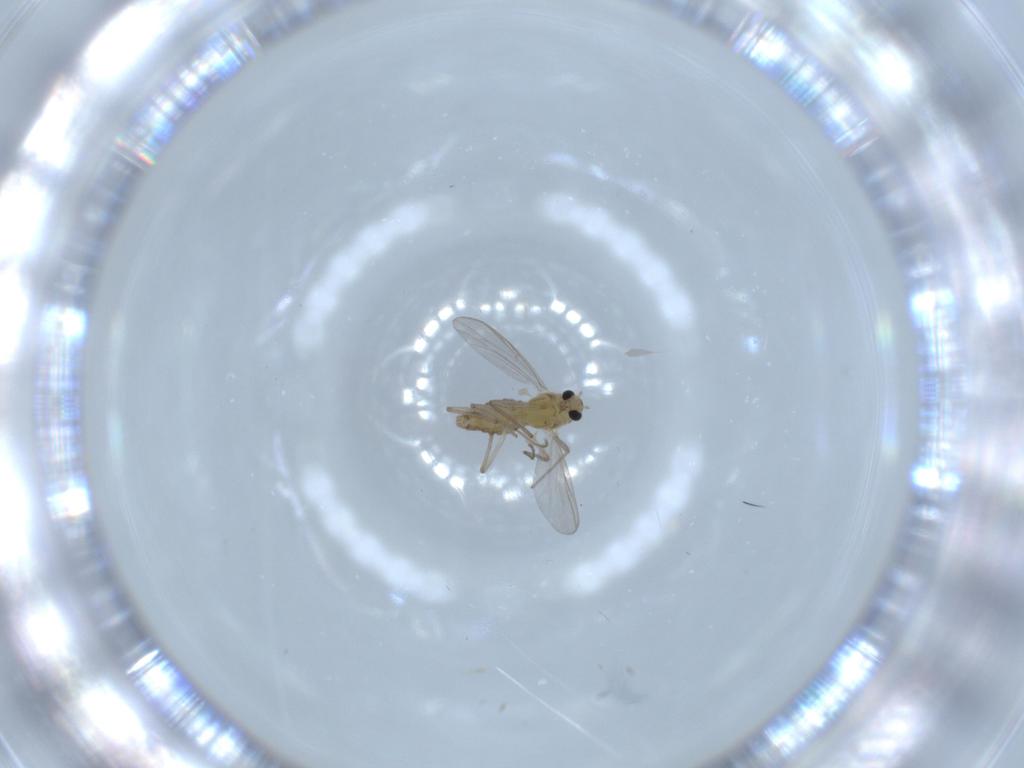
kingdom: Animalia
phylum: Arthropoda
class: Insecta
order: Diptera
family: Chironomidae
